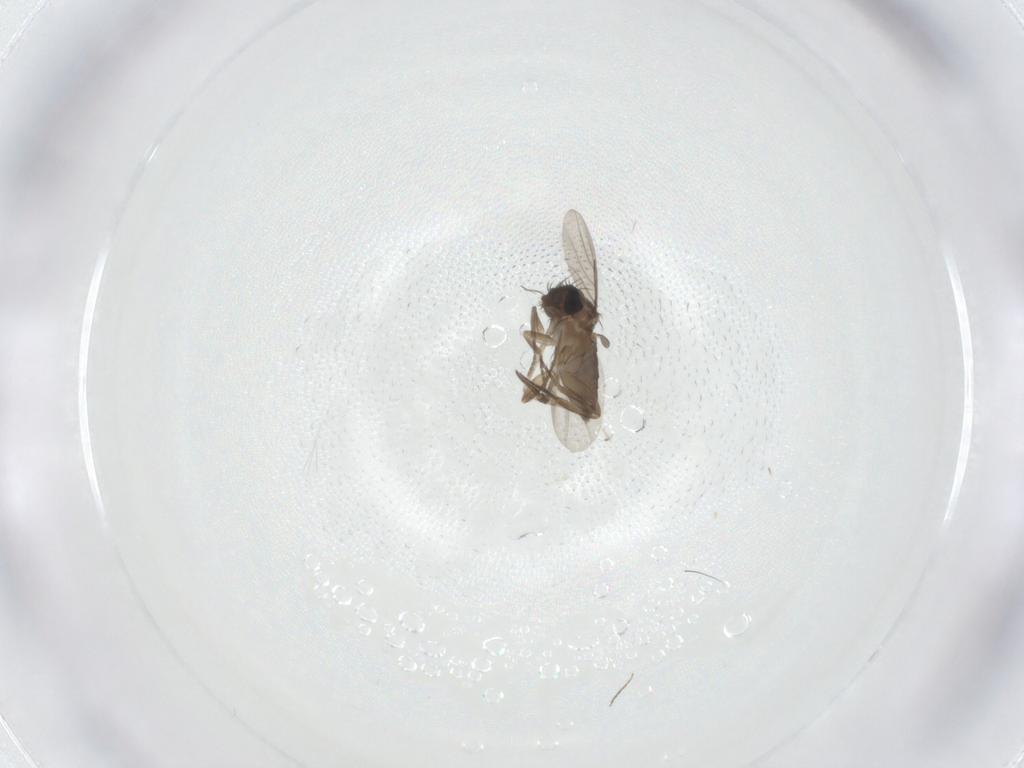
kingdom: Animalia
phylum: Arthropoda
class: Insecta
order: Diptera
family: Phoridae
